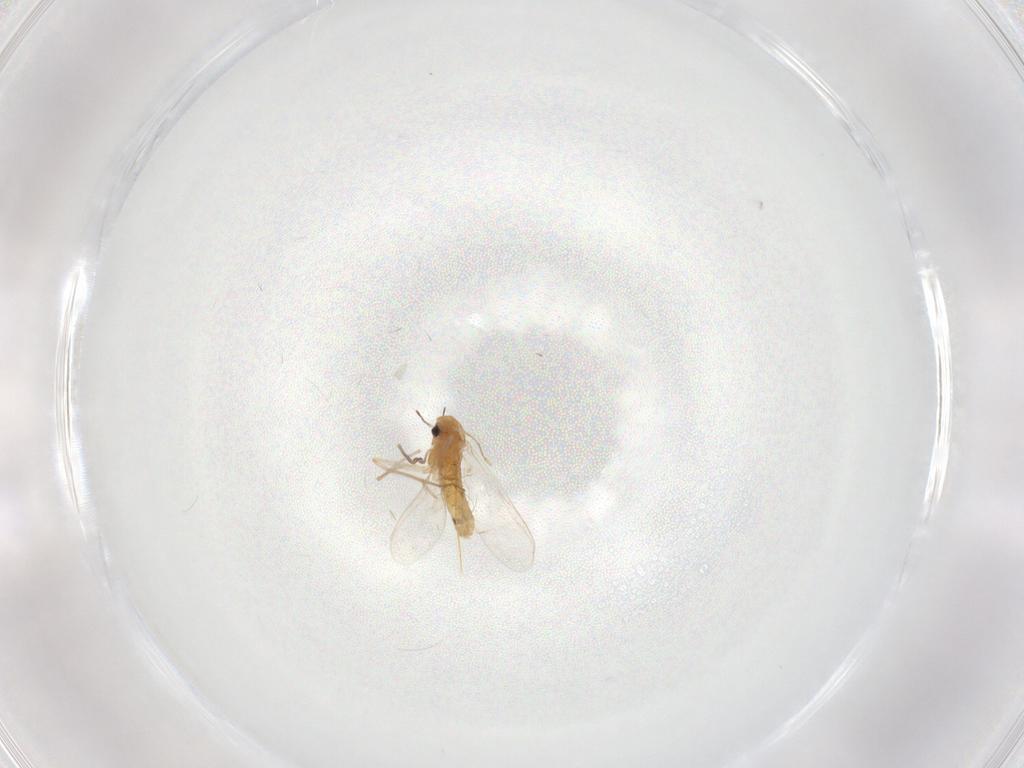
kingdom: Animalia
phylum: Arthropoda
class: Insecta
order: Diptera
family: Chironomidae
